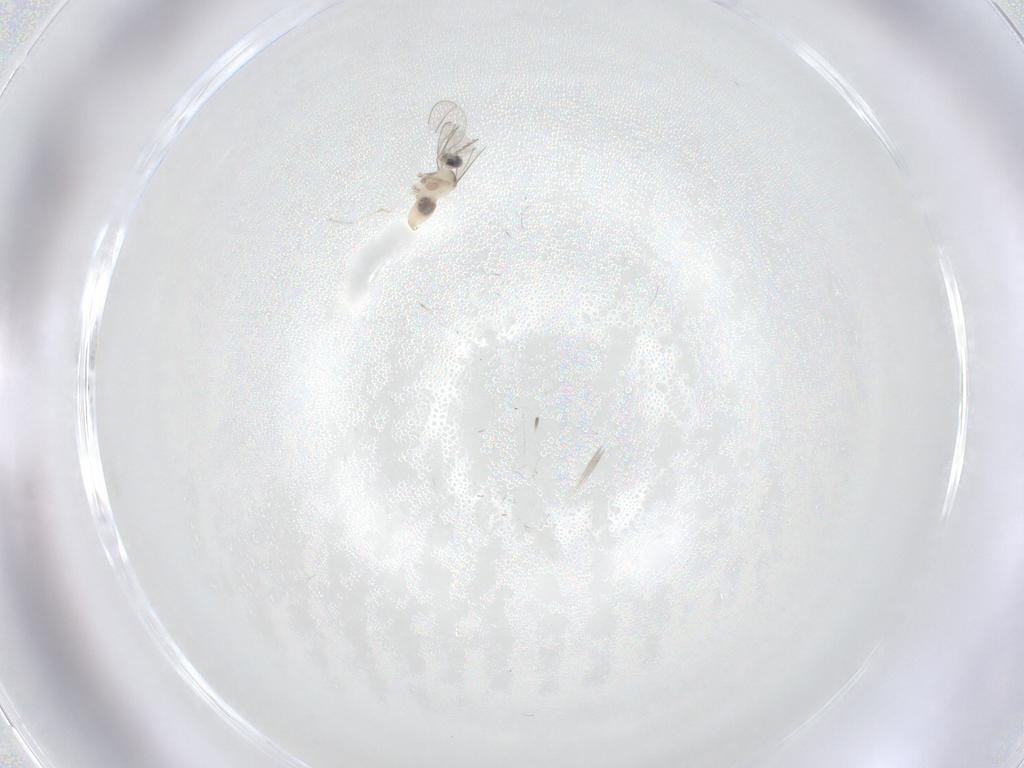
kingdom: Animalia
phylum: Arthropoda
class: Insecta
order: Diptera
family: Cecidomyiidae
